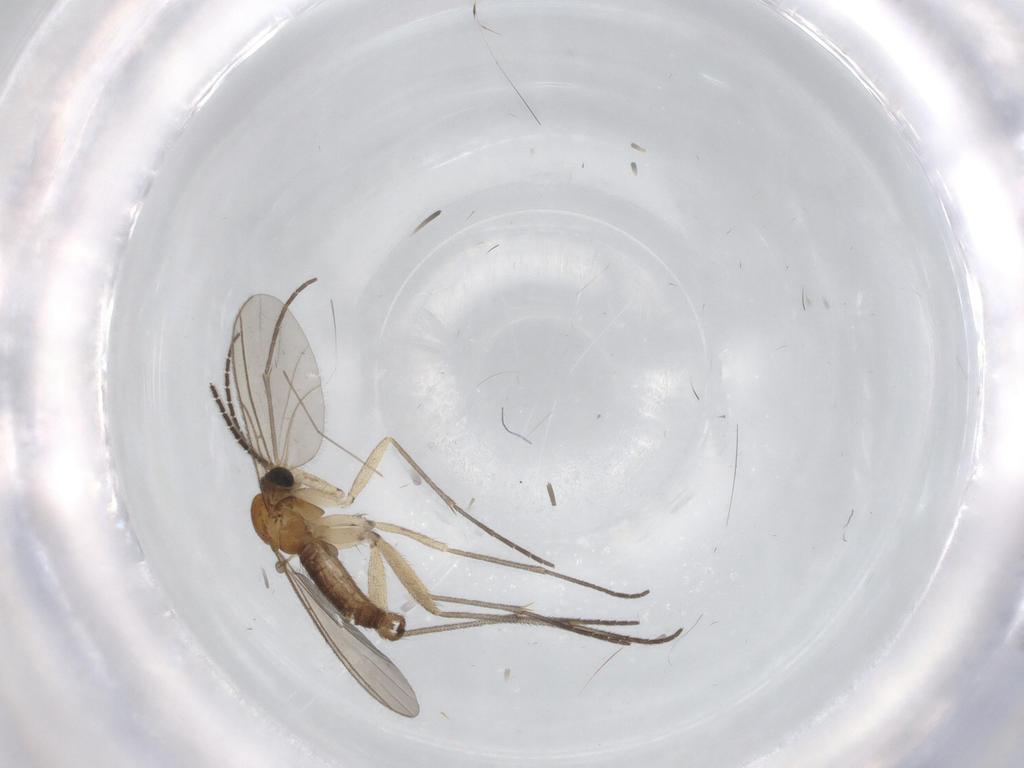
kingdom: Animalia
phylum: Arthropoda
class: Insecta
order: Diptera
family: Sciaridae
